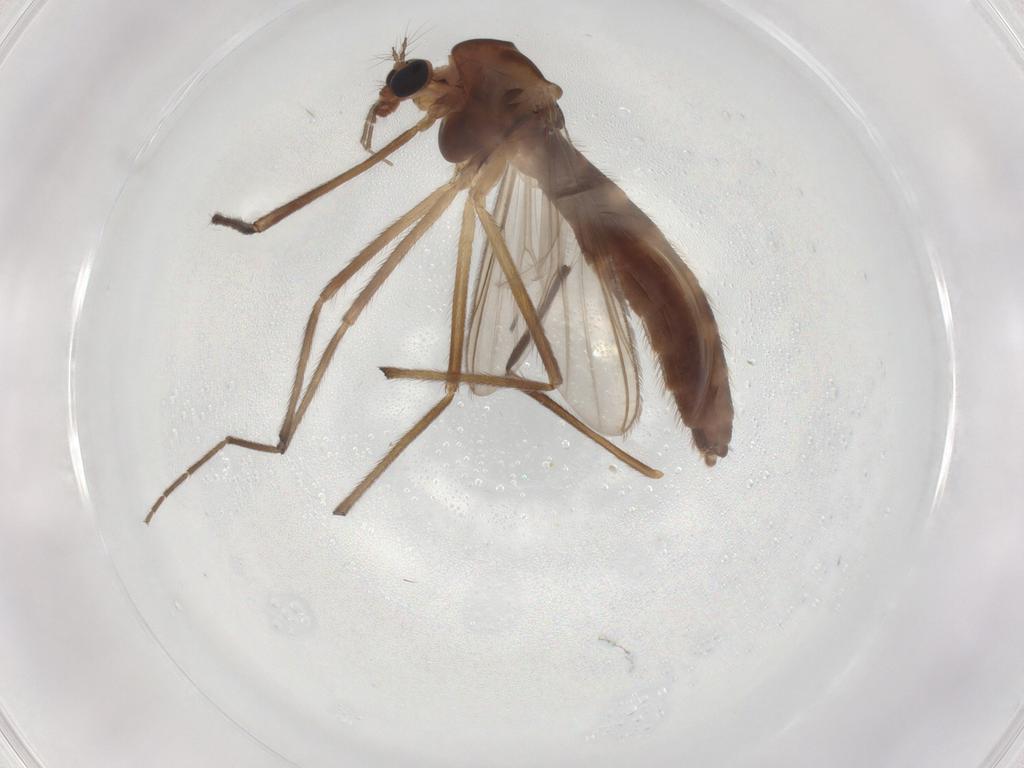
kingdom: Animalia
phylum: Arthropoda
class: Insecta
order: Diptera
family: Chironomidae
